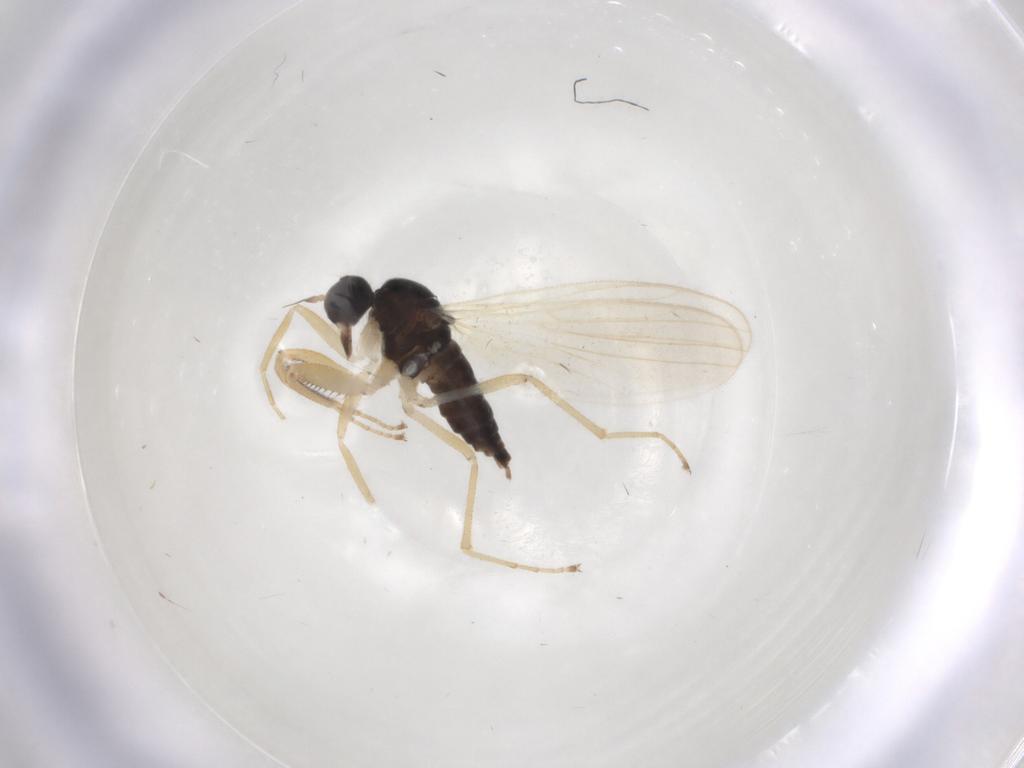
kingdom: Animalia
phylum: Arthropoda
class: Insecta
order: Diptera
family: Hybotidae
